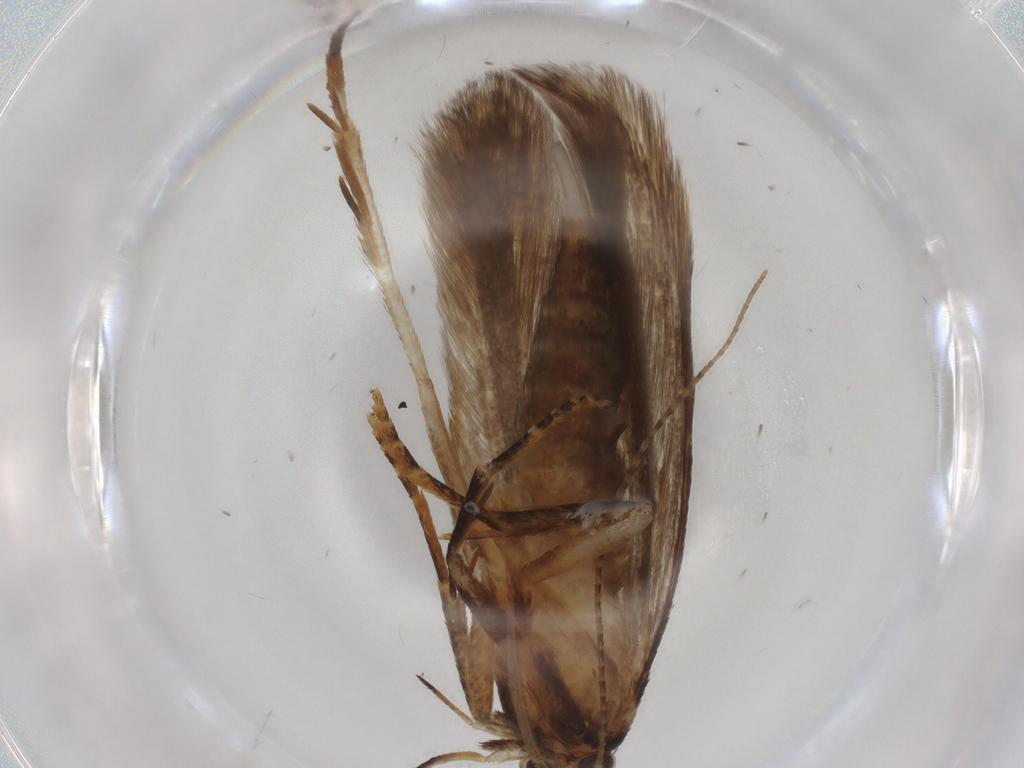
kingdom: Animalia
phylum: Arthropoda
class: Insecta
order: Lepidoptera
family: Gelechiidae
